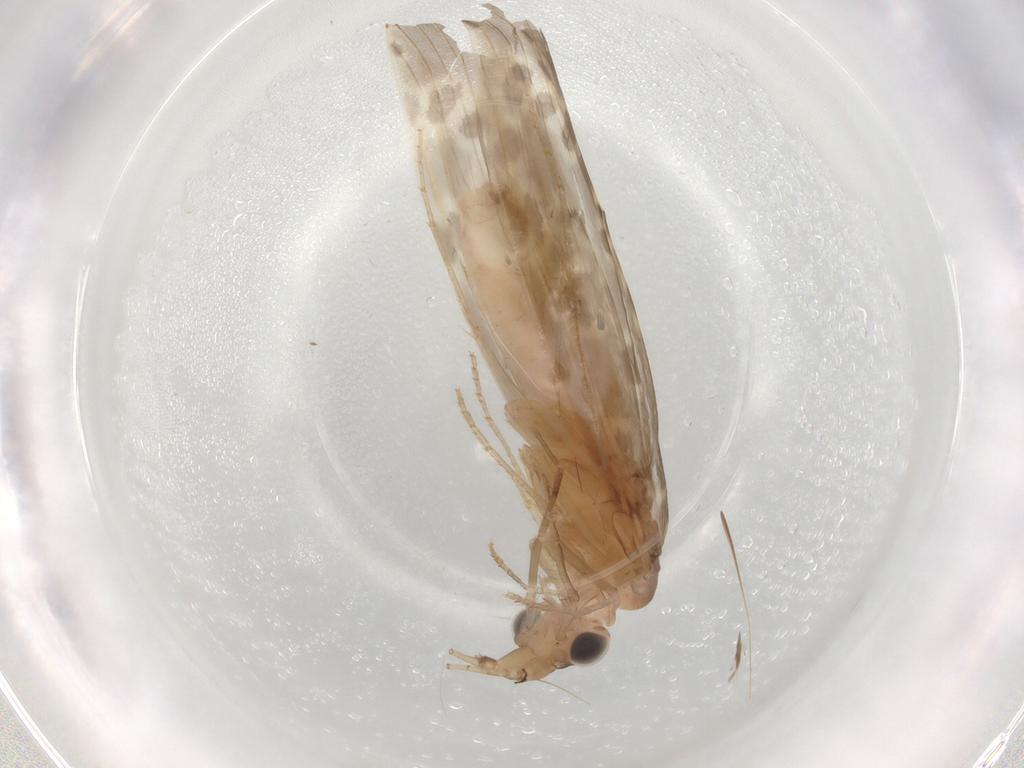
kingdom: Animalia
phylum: Arthropoda
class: Insecta
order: Trichoptera
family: Leptoceridae
